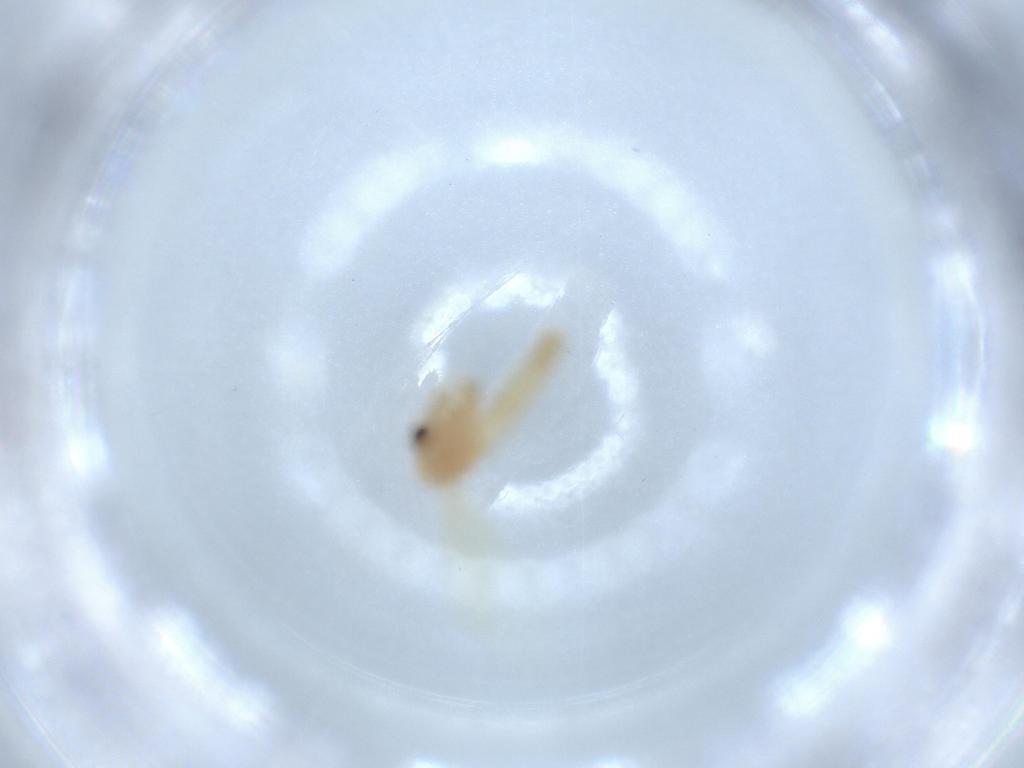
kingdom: Animalia
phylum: Arthropoda
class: Insecta
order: Diptera
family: Psychodidae
